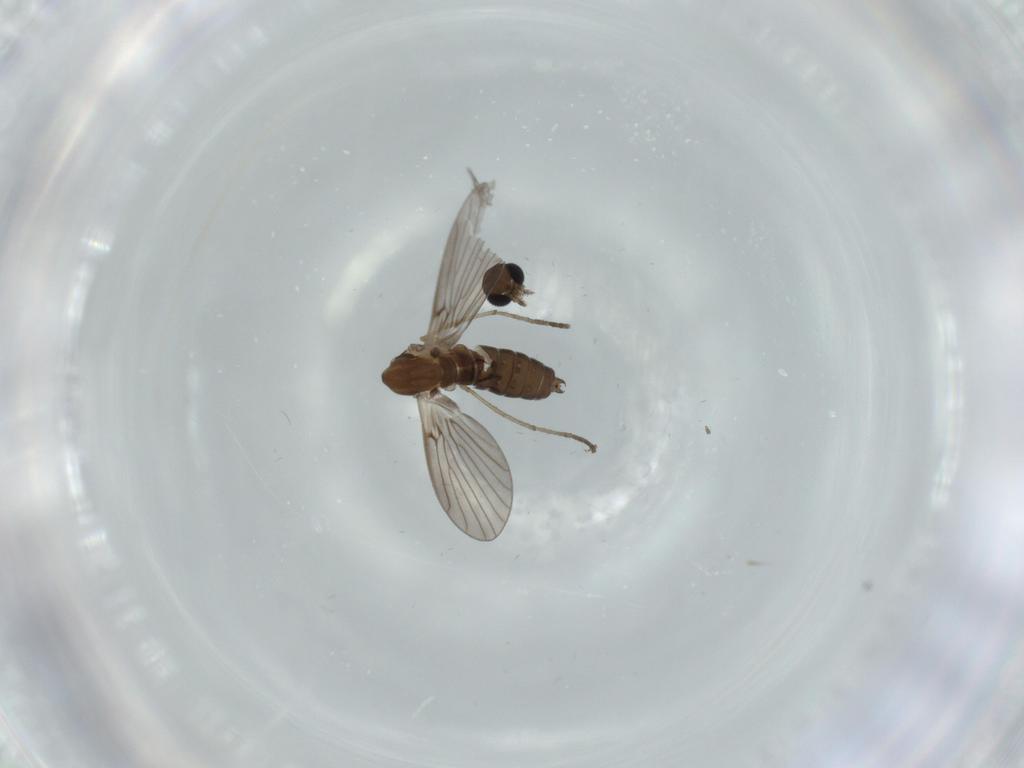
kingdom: Animalia
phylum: Arthropoda
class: Insecta
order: Diptera
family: Psychodidae
